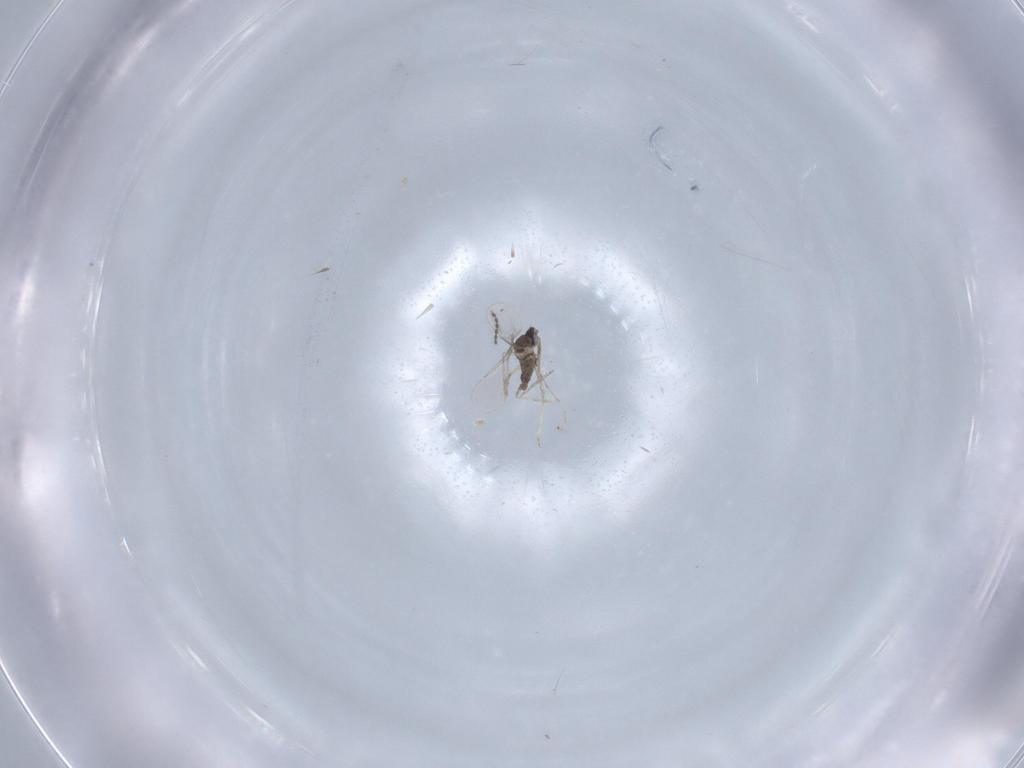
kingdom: Animalia
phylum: Arthropoda
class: Insecta
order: Diptera
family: Cecidomyiidae
